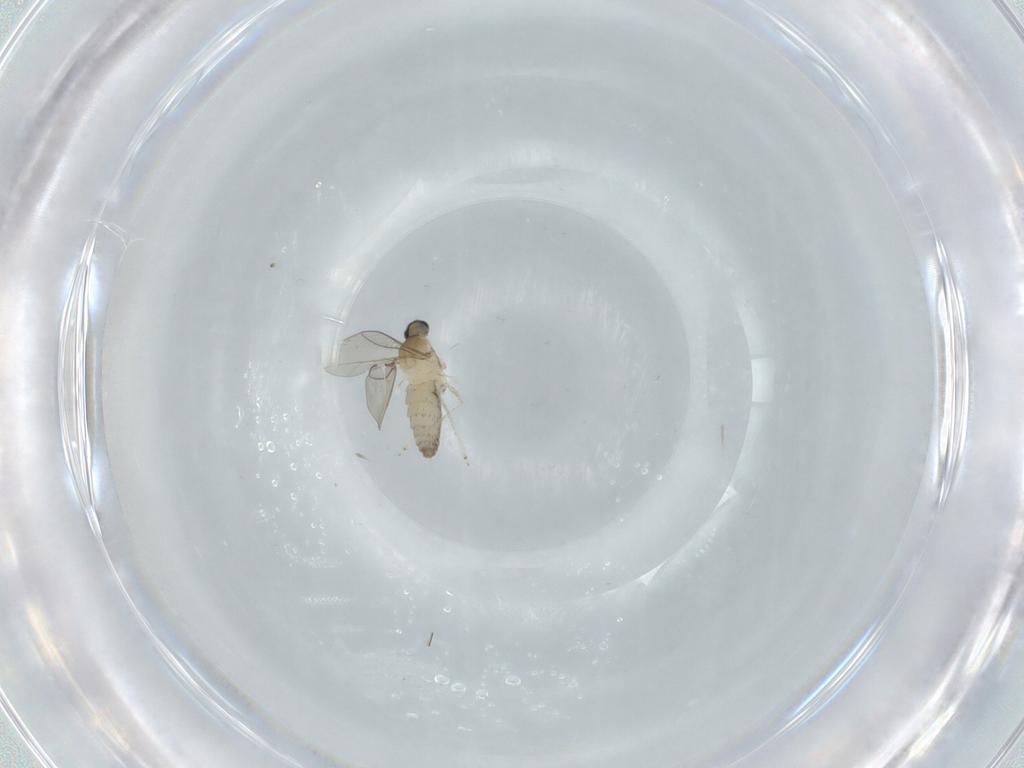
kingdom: Animalia
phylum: Arthropoda
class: Insecta
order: Diptera
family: Cecidomyiidae
